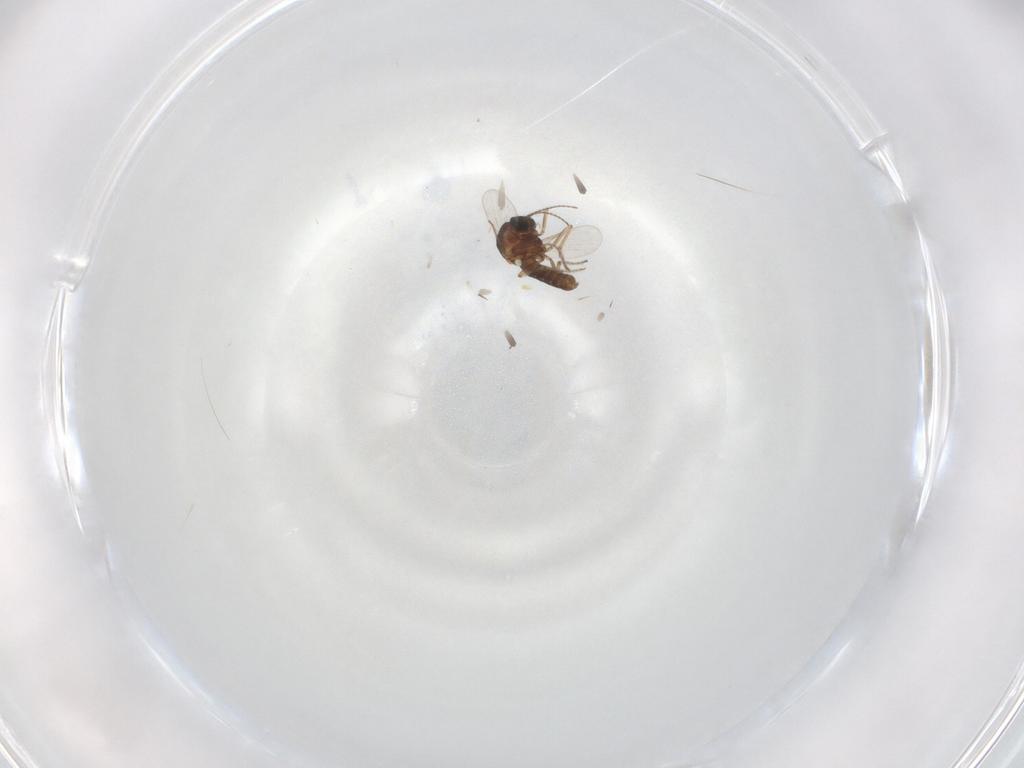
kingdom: Animalia
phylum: Arthropoda
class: Insecta
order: Diptera
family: Ceratopogonidae
